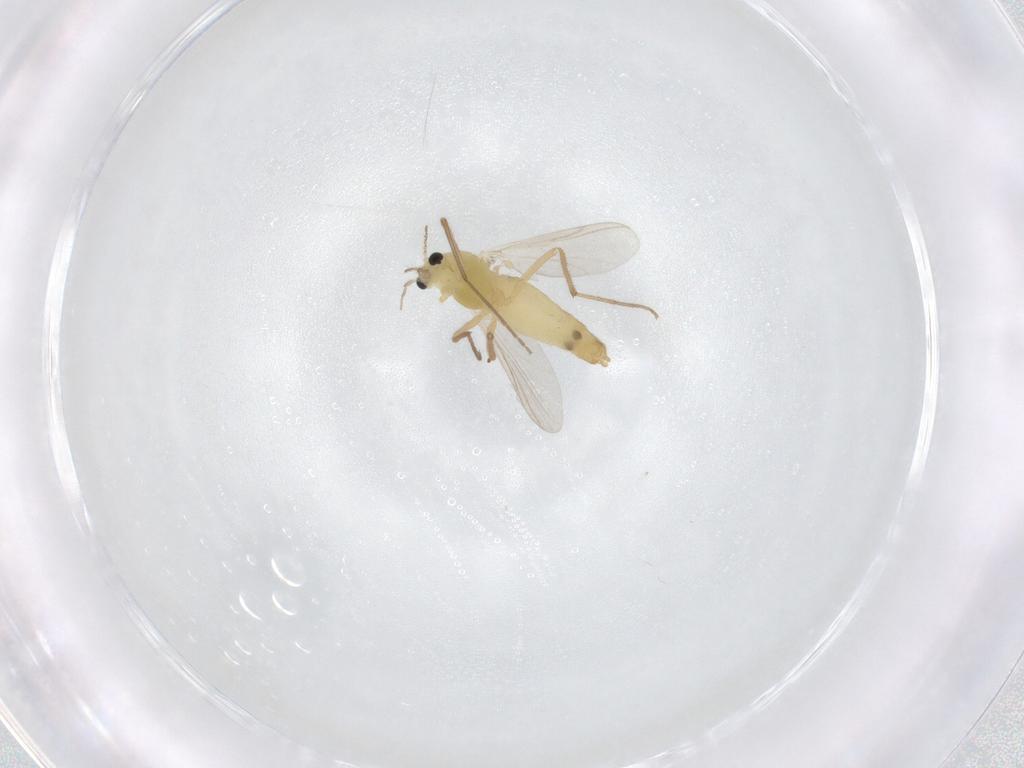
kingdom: Animalia
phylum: Arthropoda
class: Insecta
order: Diptera
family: Chironomidae
